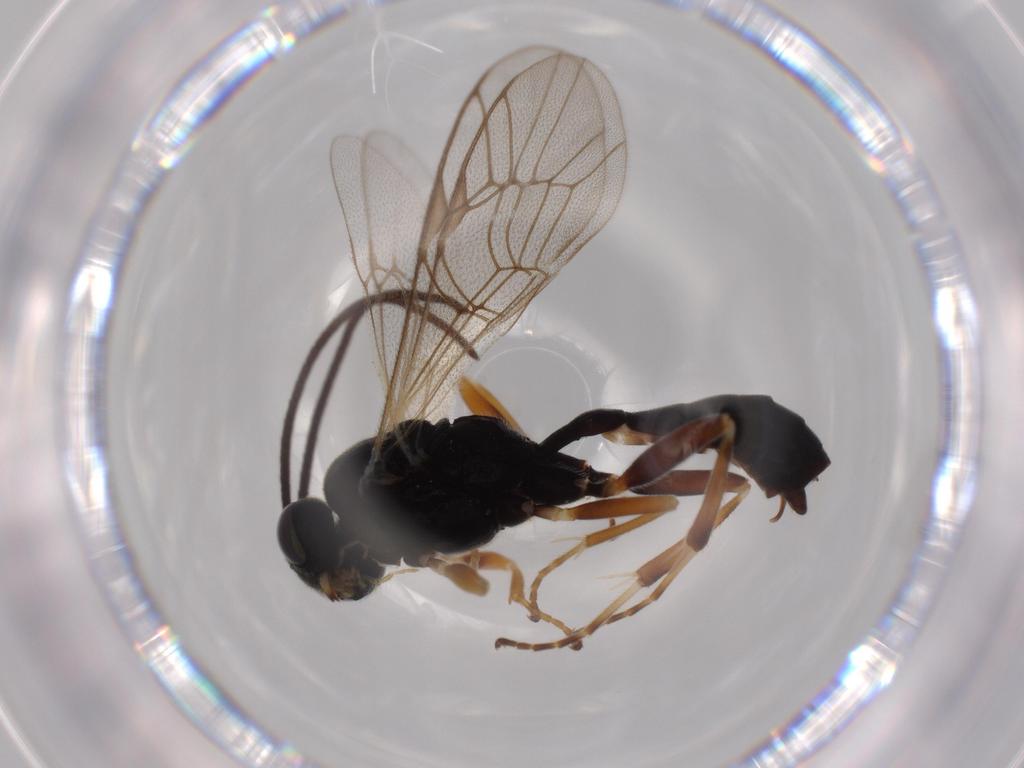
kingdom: Animalia
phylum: Arthropoda
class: Insecta
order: Hymenoptera
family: Ichneumonidae
